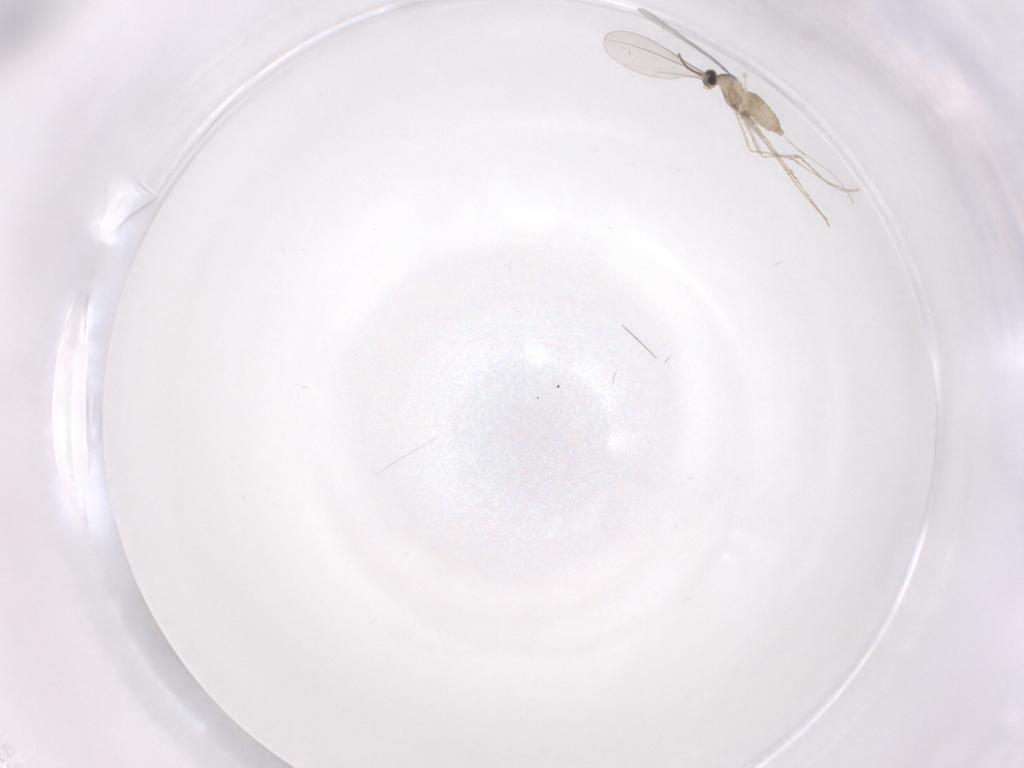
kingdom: Animalia
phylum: Arthropoda
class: Insecta
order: Diptera
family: Cecidomyiidae
